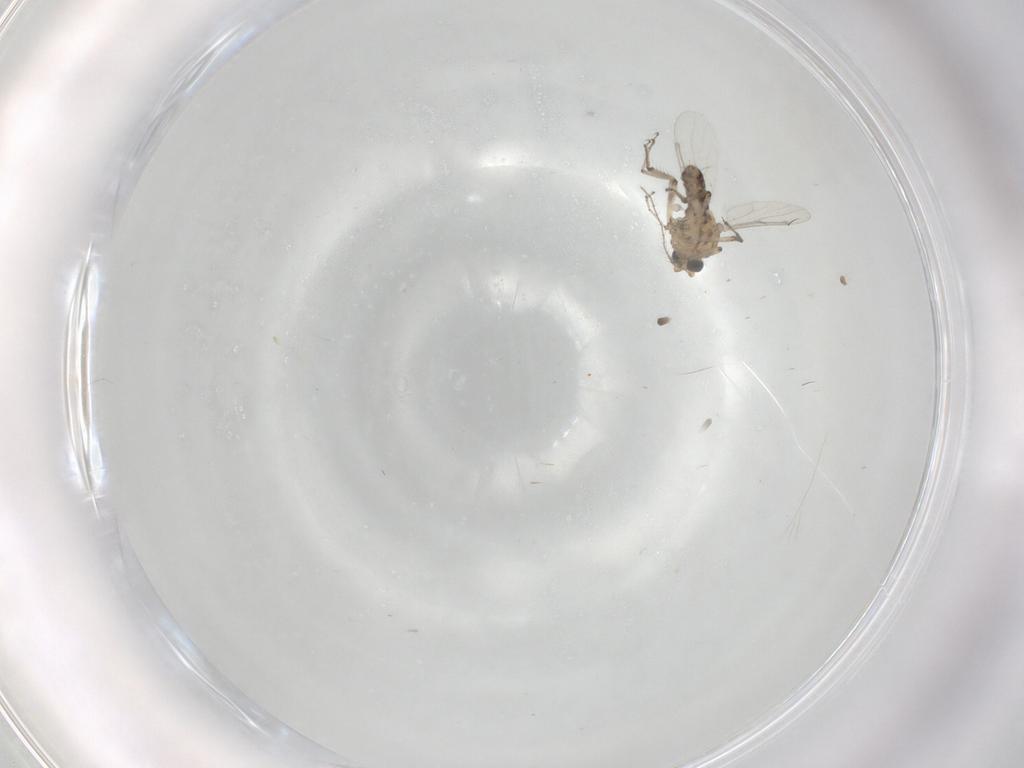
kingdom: Animalia
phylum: Arthropoda
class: Insecta
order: Diptera
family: Ceratopogonidae
